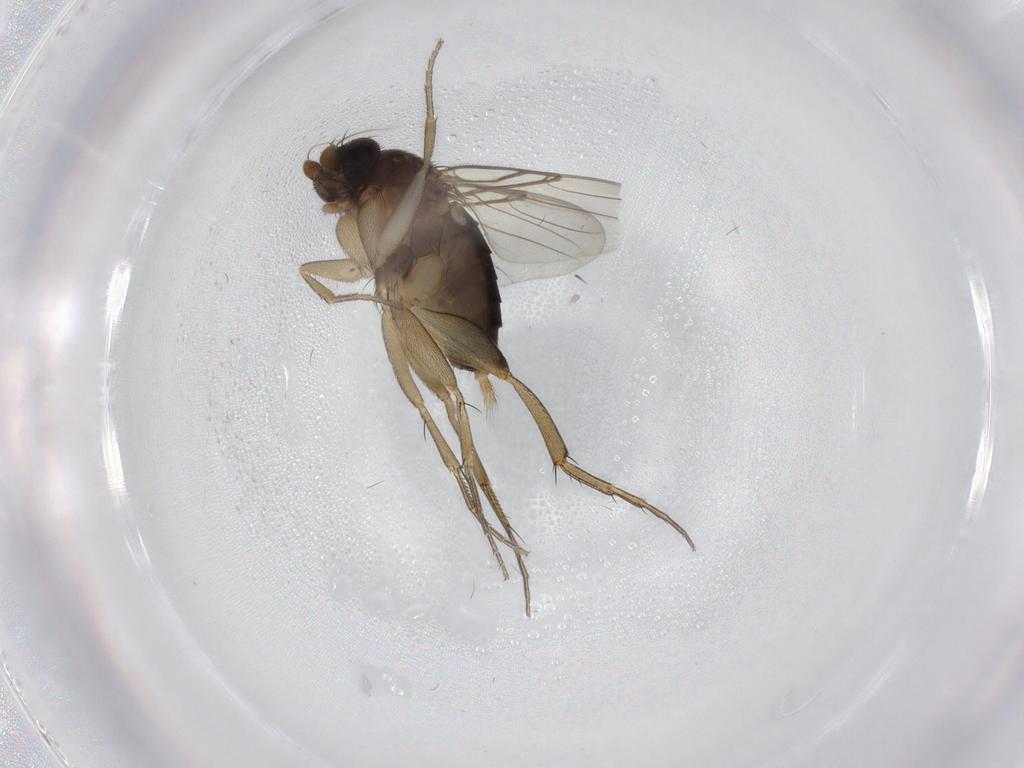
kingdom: Animalia
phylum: Arthropoda
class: Insecta
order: Diptera
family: Phoridae
